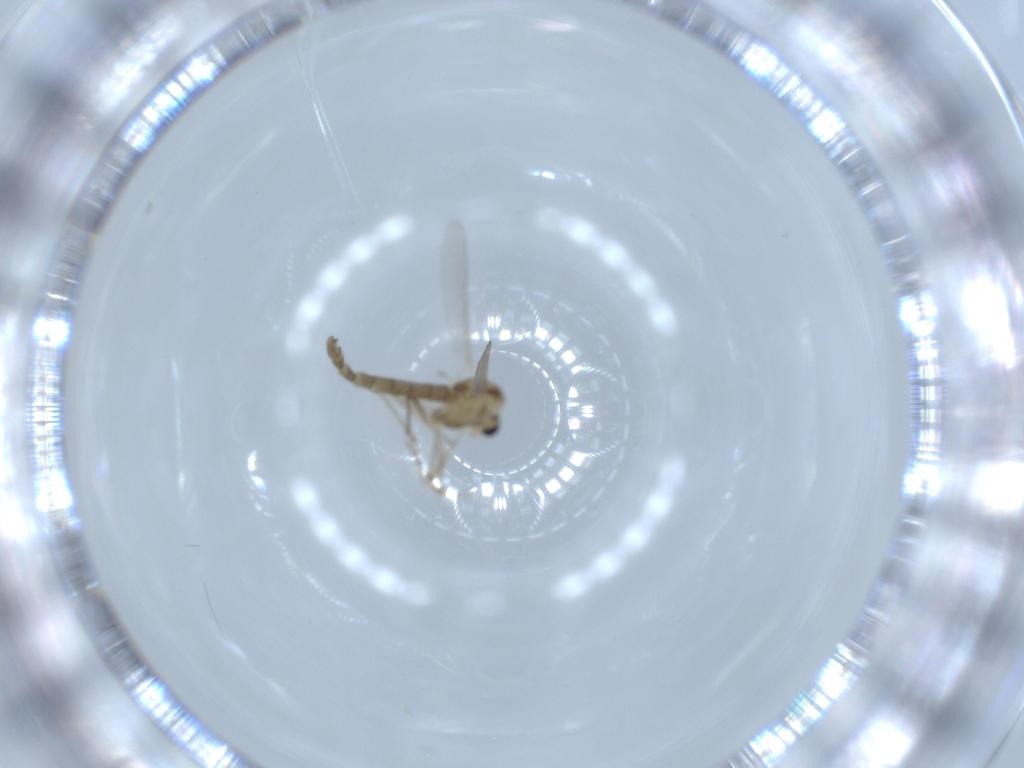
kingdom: Animalia
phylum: Arthropoda
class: Insecta
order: Diptera
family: Chironomidae
